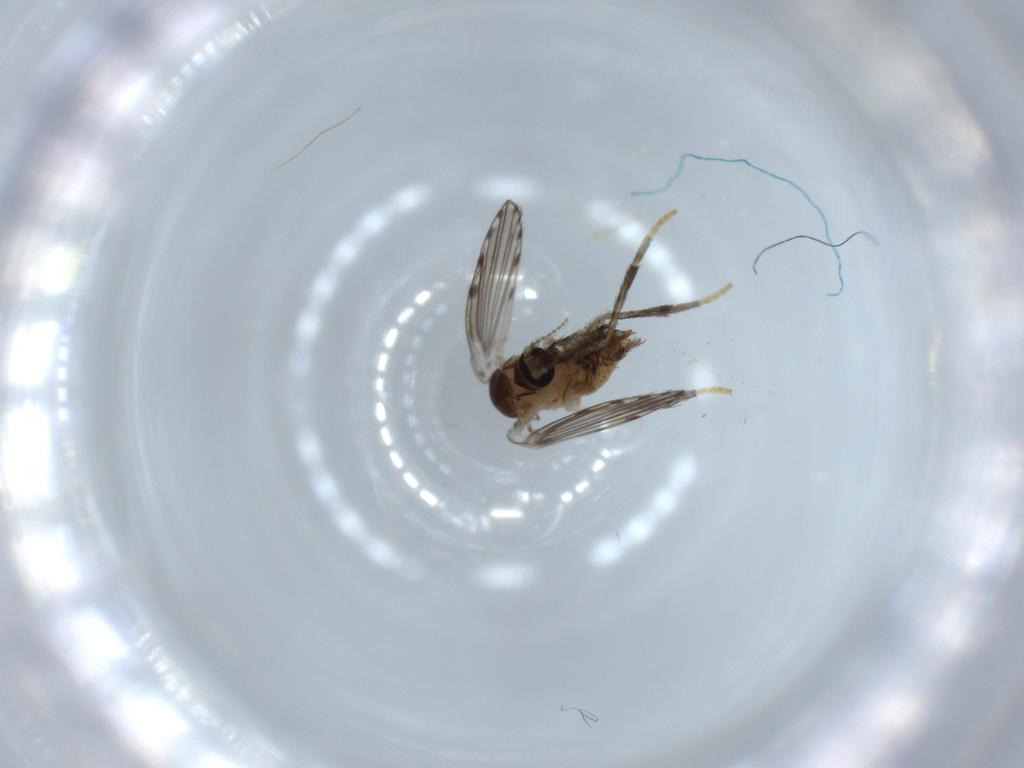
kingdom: Animalia
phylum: Arthropoda
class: Insecta
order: Diptera
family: Psychodidae
